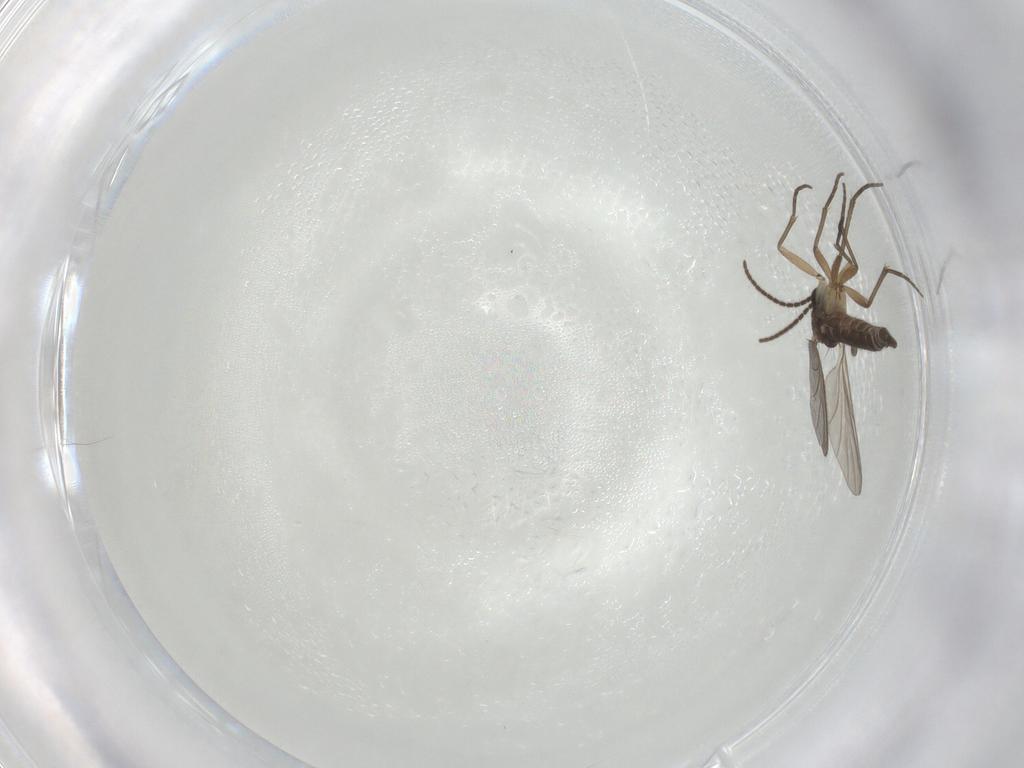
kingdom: Animalia
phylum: Arthropoda
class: Insecta
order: Diptera
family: Sciaridae
